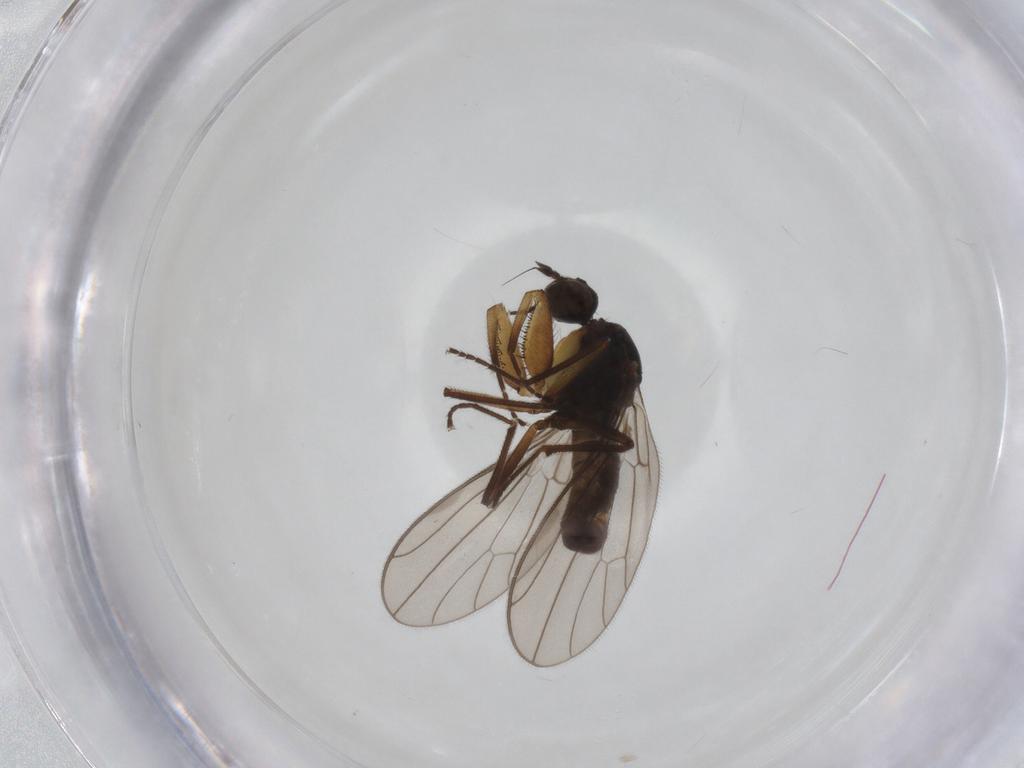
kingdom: Animalia
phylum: Arthropoda
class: Insecta
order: Diptera
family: Empididae
